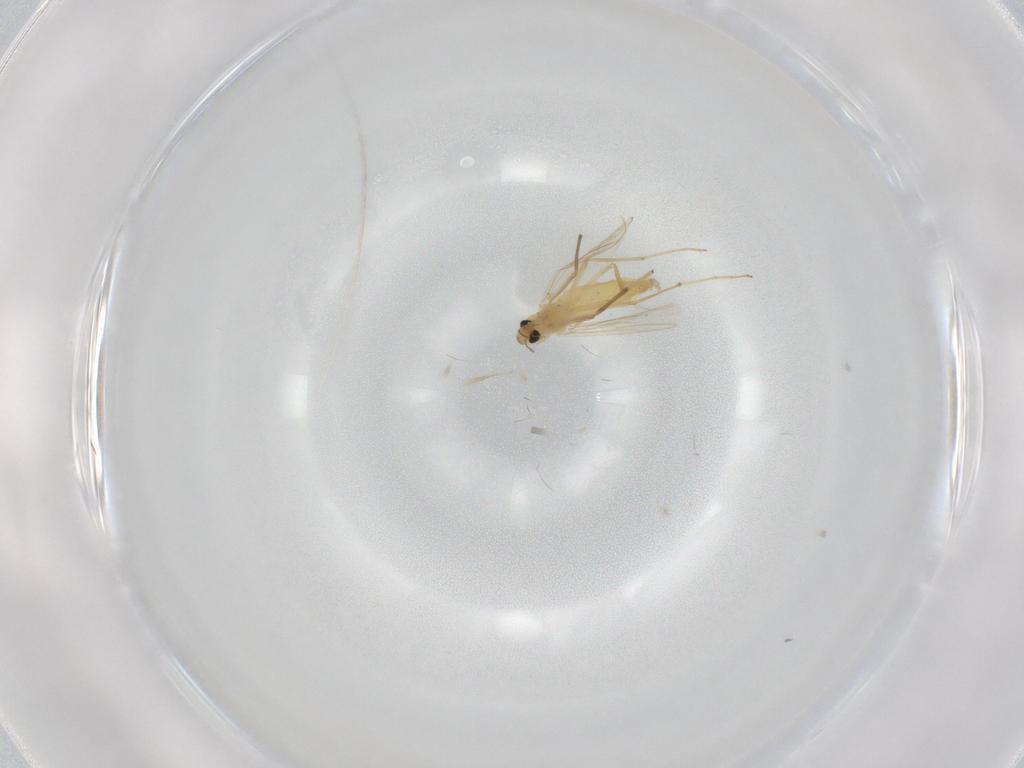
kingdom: Animalia
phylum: Arthropoda
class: Insecta
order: Diptera
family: Chironomidae
